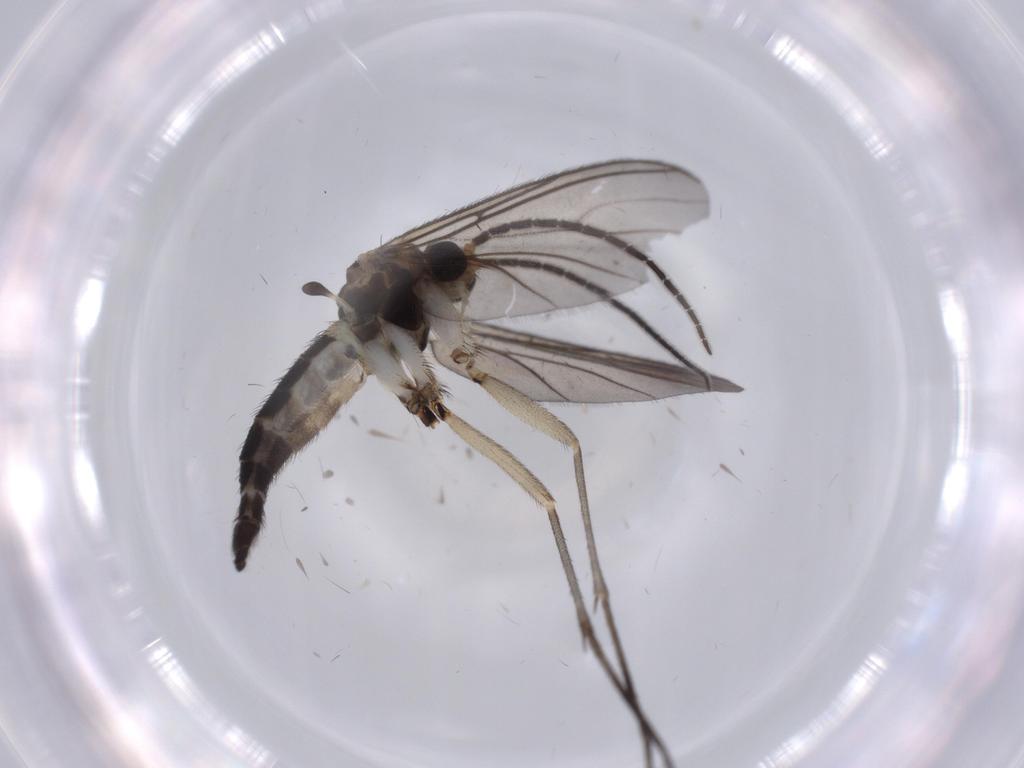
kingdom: Animalia
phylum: Arthropoda
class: Insecta
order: Diptera
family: Sciaridae
